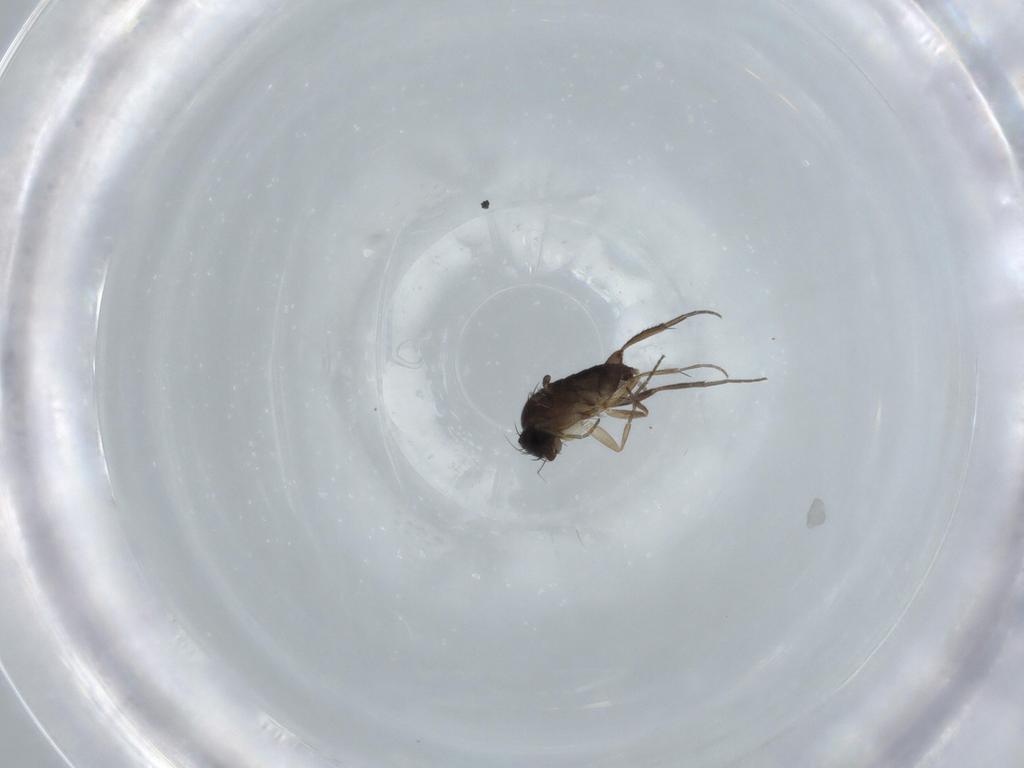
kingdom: Animalia
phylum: Arthropoda
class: Insecta
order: Diptera
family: Phoridae
